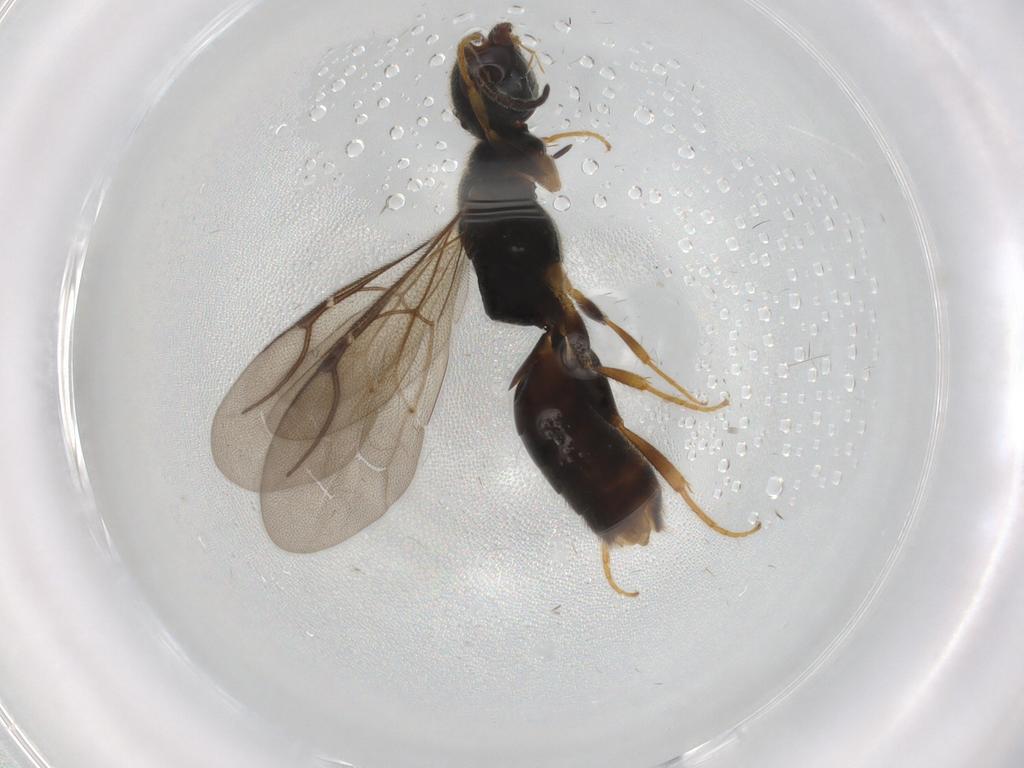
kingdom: Animalia
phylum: Arthropoda
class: Insecta
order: Hymenoptera
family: Bethylidae
